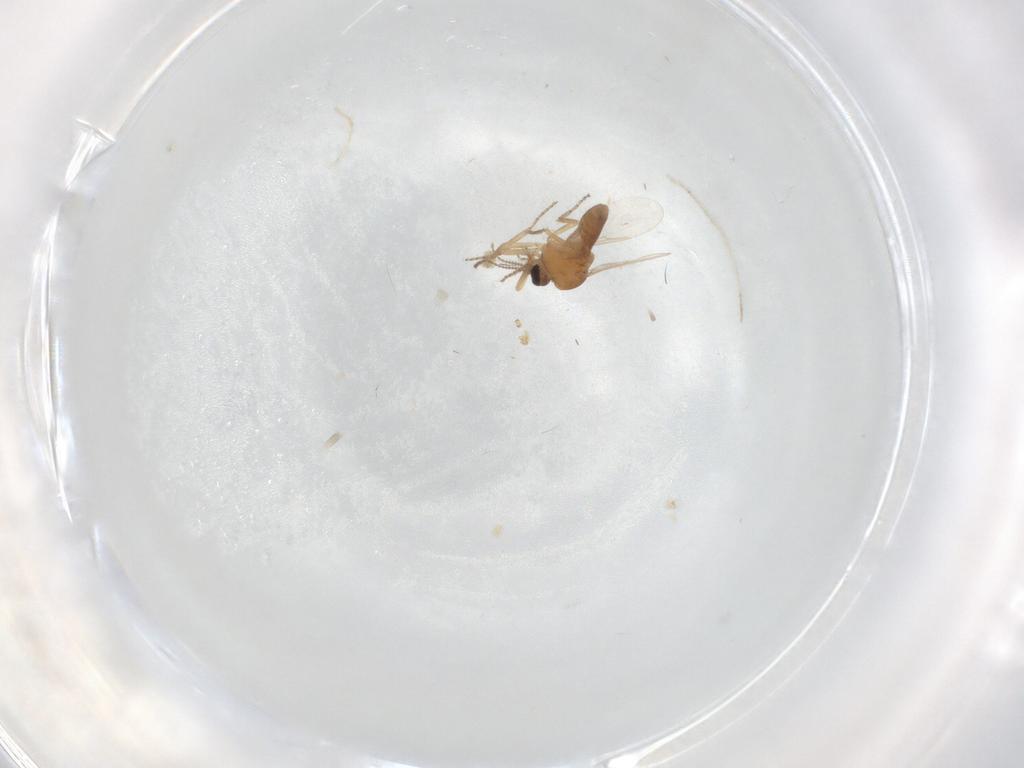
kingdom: Animalia
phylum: Arthropoda
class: Insecta
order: Diptera
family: Ceratopogonidae
